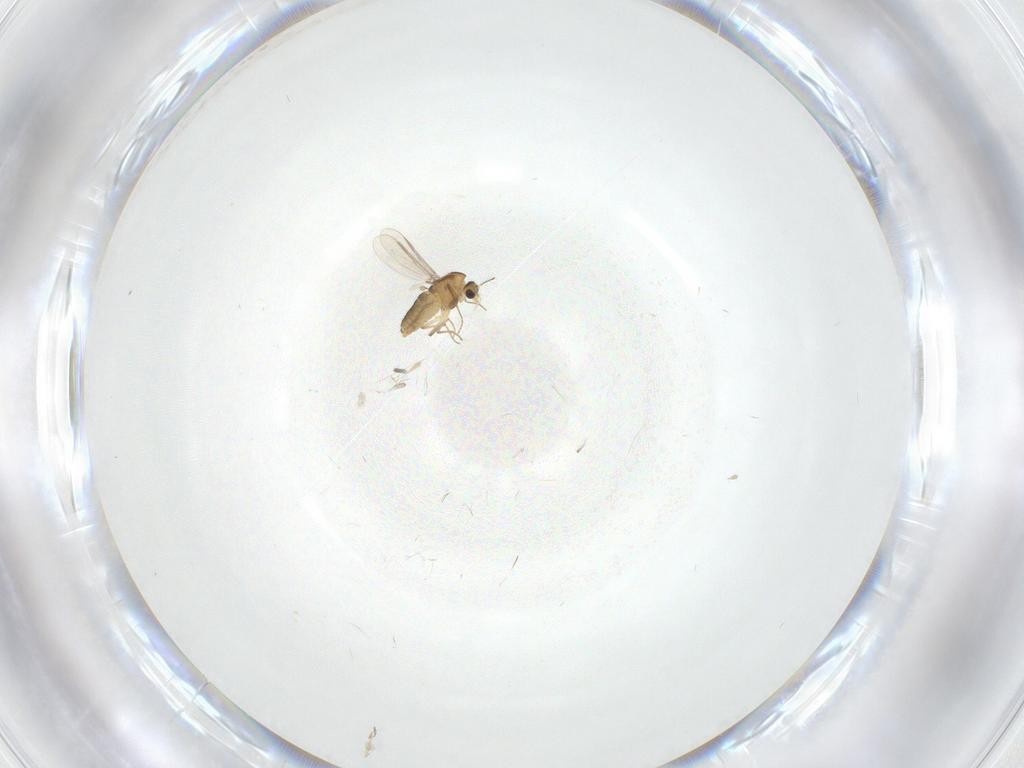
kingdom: Animalia
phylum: Arthropoda
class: Insecta
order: Diptera
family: Chironomidae
